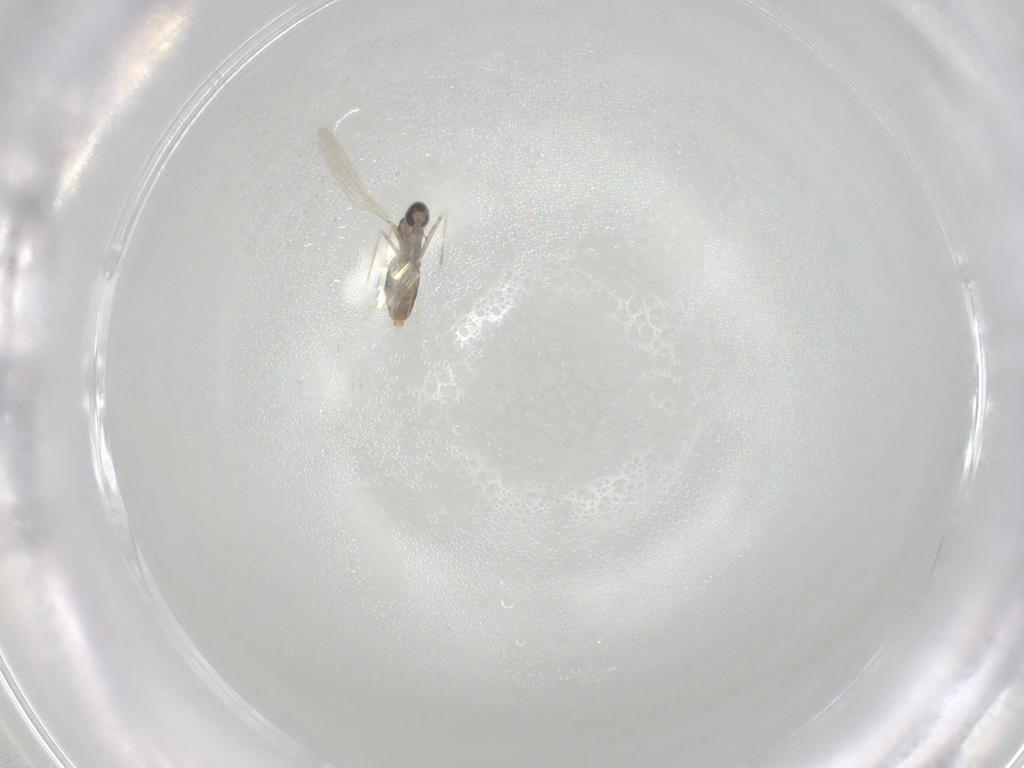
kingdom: Animalia
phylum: Arthropoda
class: Insecta
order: Diptera
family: Cecidomyiidae
